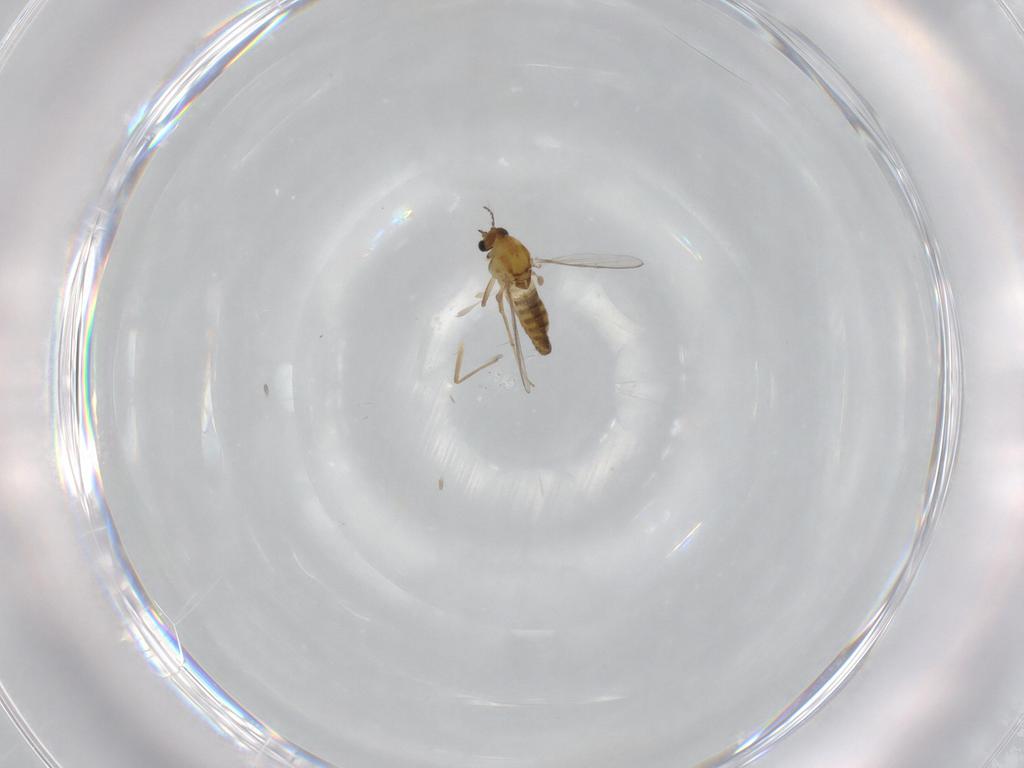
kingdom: Animalia
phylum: Arthropoda
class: Insecta
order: Diptera
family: Chironomidae
